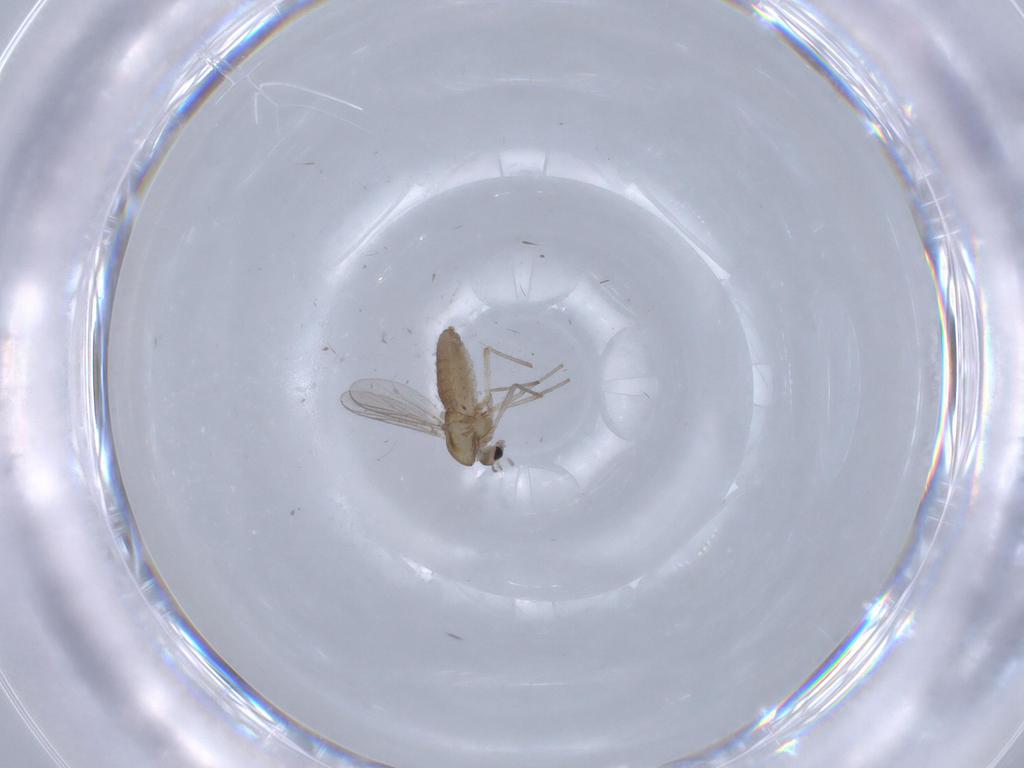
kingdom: Animalia
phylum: Arthropoda
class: Insecta
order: Diptera
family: Chironomidae
